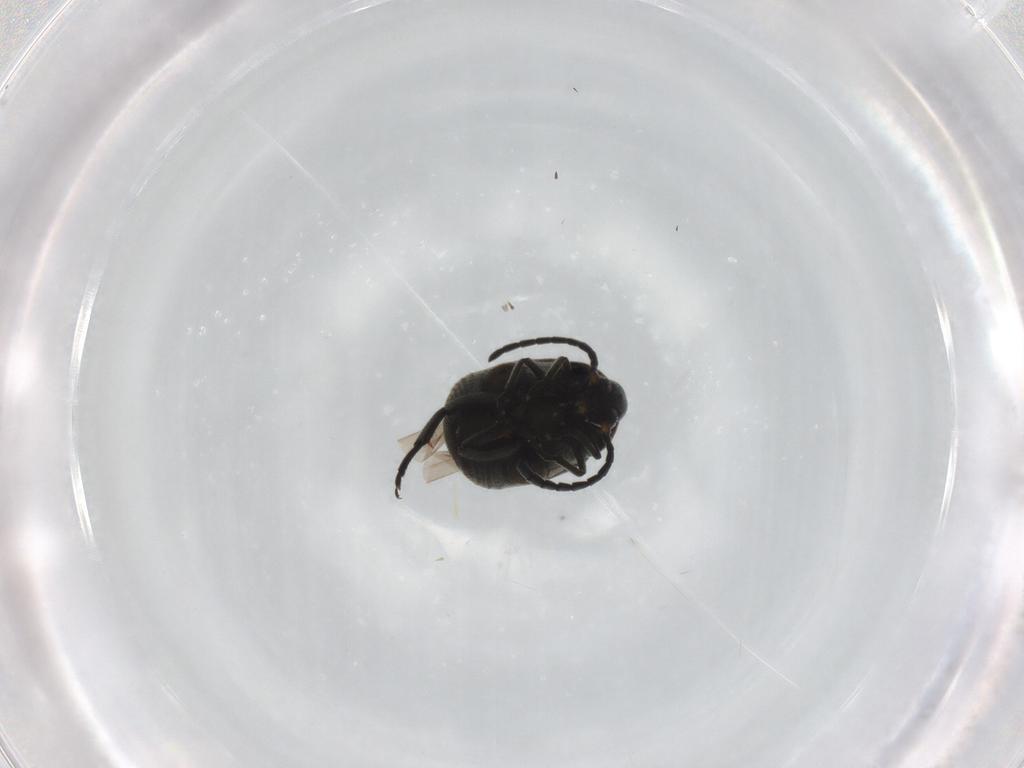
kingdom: Animalia
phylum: Arthropoda
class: Insecta
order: Coleoptera
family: Chrysomelidae
